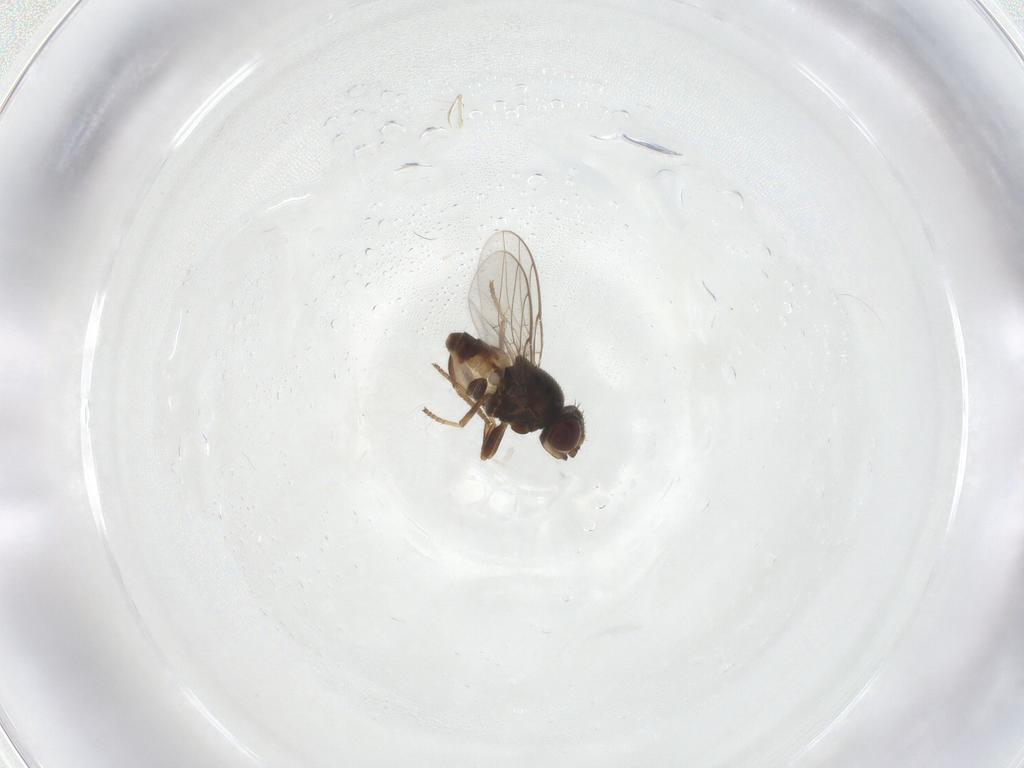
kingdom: Animalia
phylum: Arthropoda
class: Insecta
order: Diptera
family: Chloropidae
